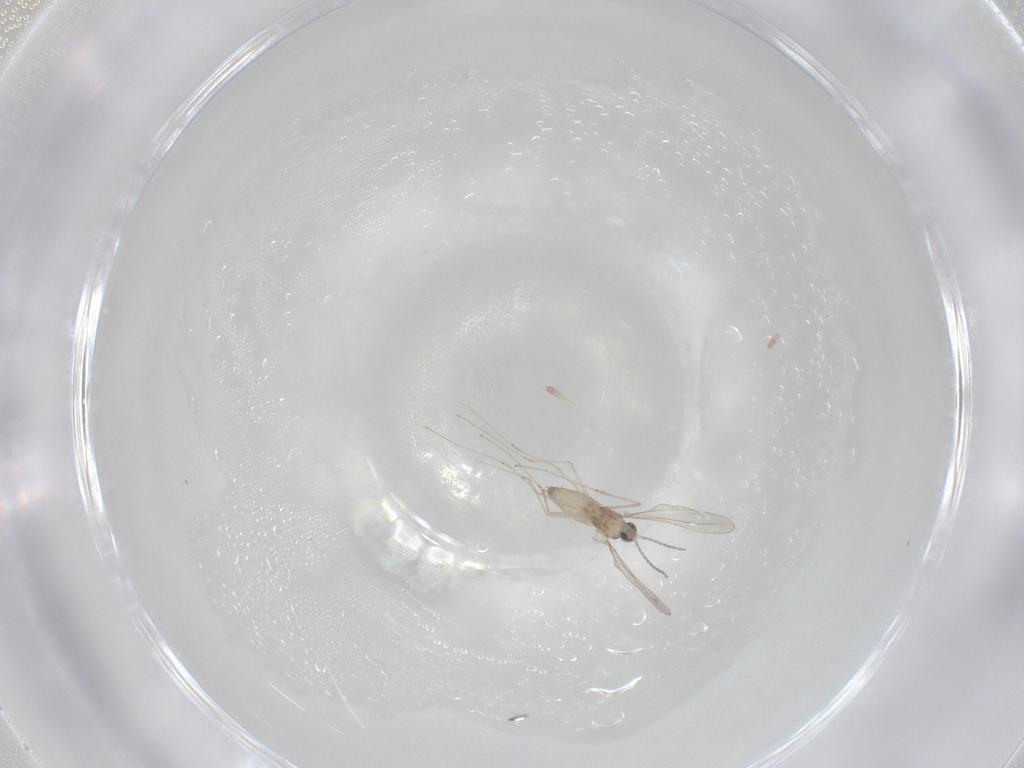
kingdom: Animalia
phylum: Arthropoda
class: Insecta
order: Diptera
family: Cecidomyiidae
